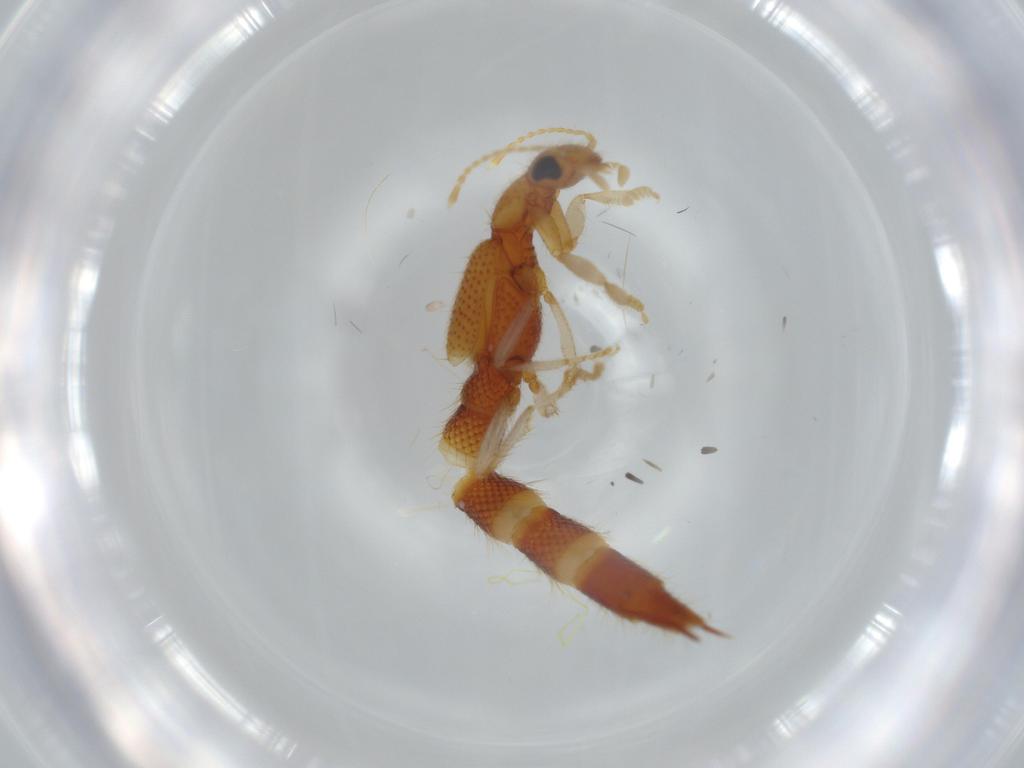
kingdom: Animalia
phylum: Arthropoda
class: Insecta
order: Coleoptera
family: Staphylinidae
